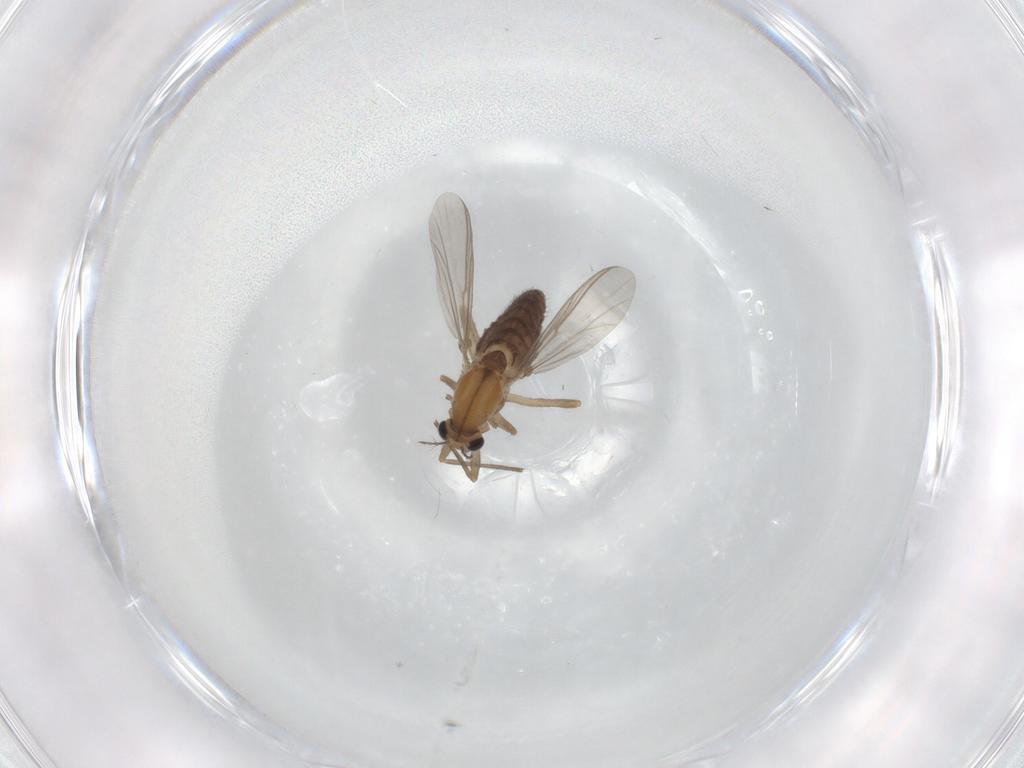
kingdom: Animalia
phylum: Arthropoda
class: Insecta
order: Diptera
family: Chironomidae
